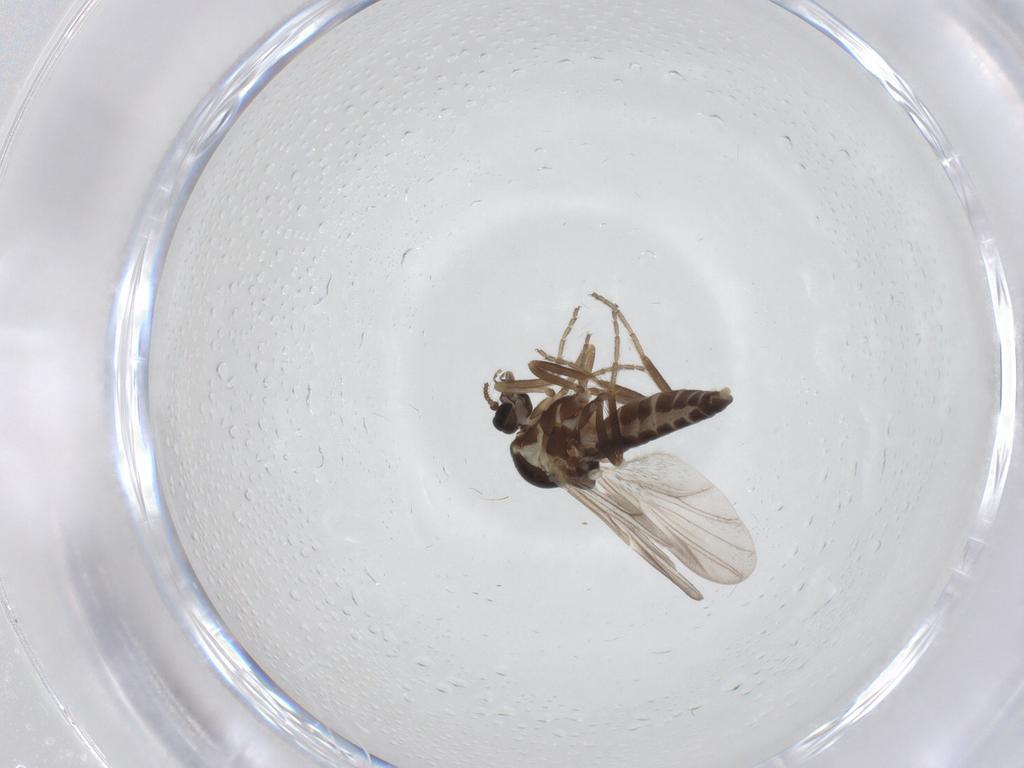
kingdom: Animalia
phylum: Arthropoda
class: Insecta
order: Diptera
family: Ceratopogonidae
